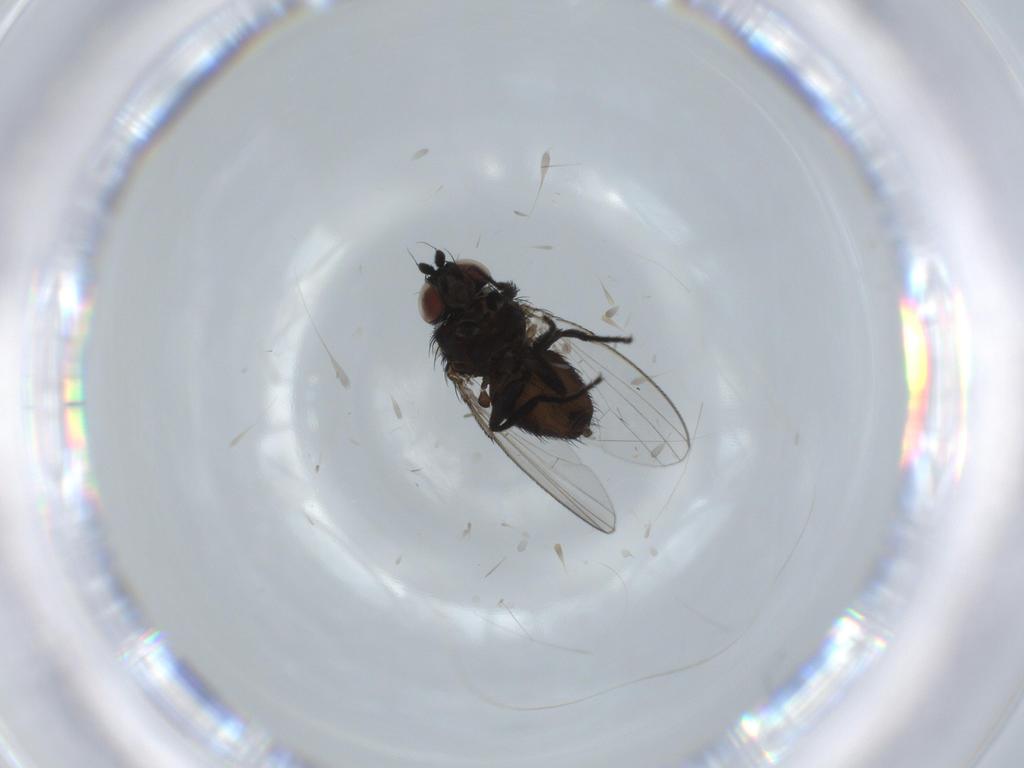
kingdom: Animalia
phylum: Arthropoda
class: Insecta
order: Diptera
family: Milichiidae
